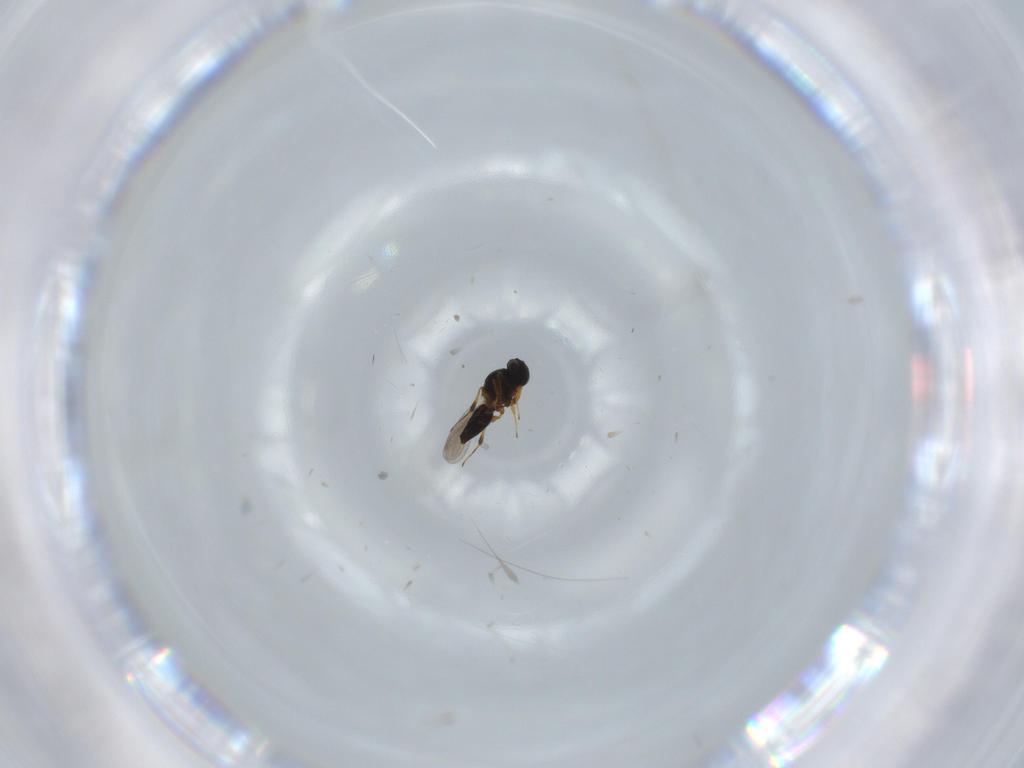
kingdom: Animalia
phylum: Arthropoda
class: Insecta
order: Hymenoptera
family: Platygastridae
